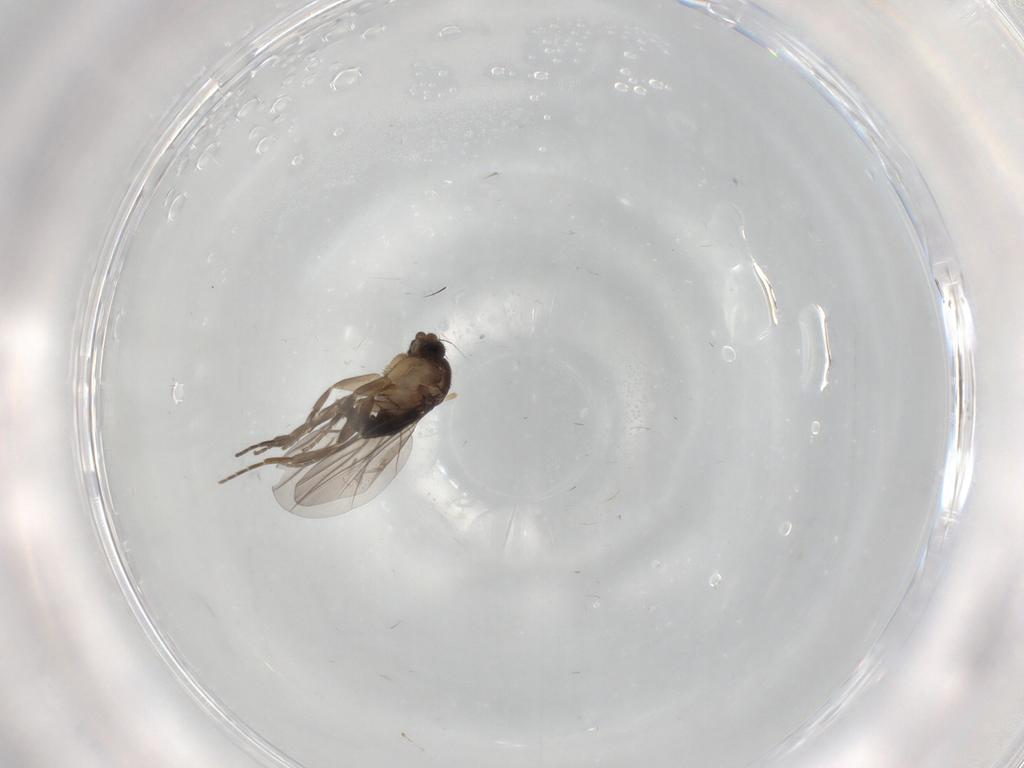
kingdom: Animalia
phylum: Arthropoda
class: Insecta
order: Diptera
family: Phoridae
